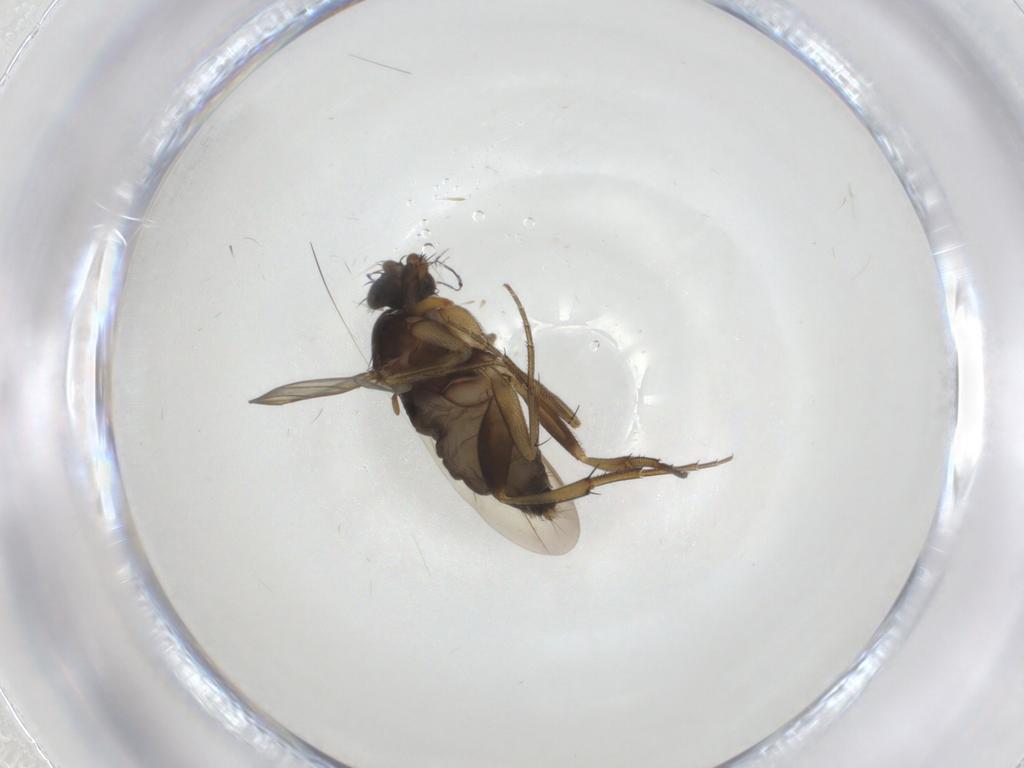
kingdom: Animalia
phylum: Arthropoda
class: Insecta
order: Diptera
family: Phoridae
